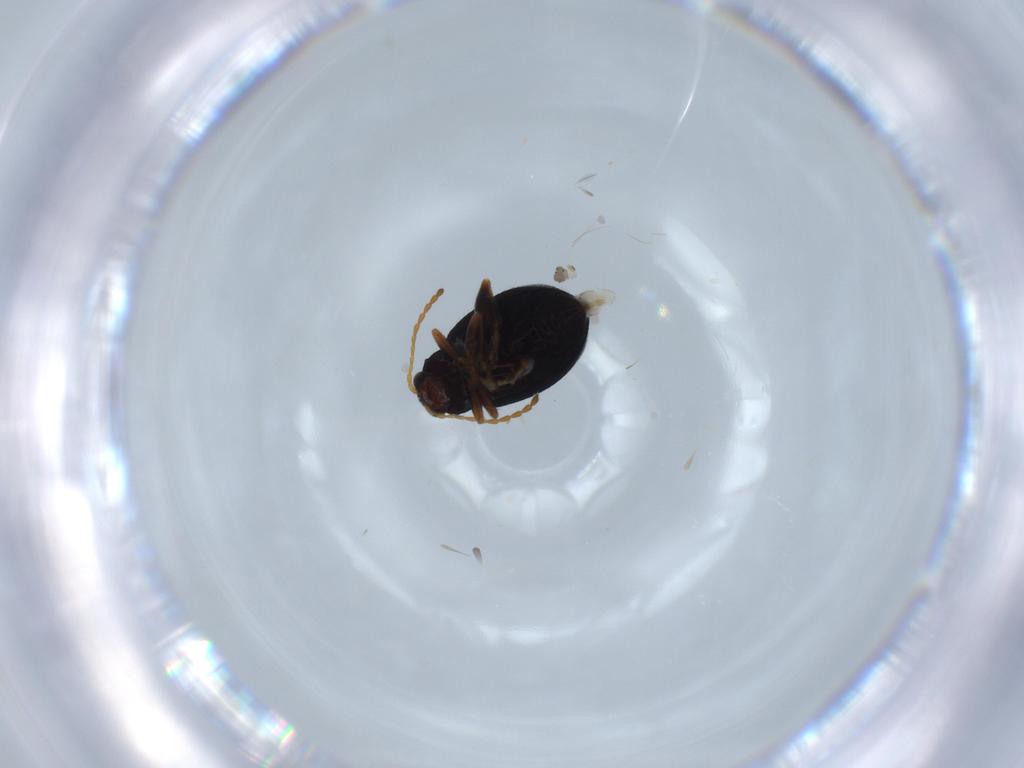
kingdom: Animalia
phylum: Arthropoda
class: Insecta
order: Coleoptera
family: Chrysomelidae
